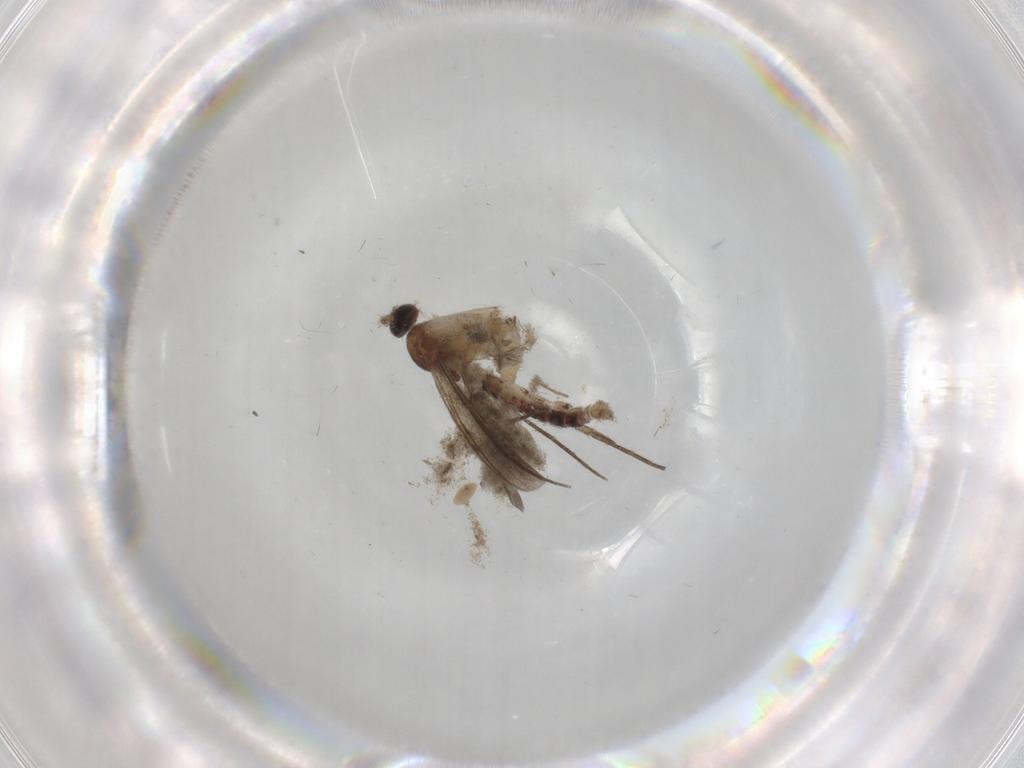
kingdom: Animalia
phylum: Arthropoda
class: Insecta
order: Diptera
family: Cecidomyiidae
